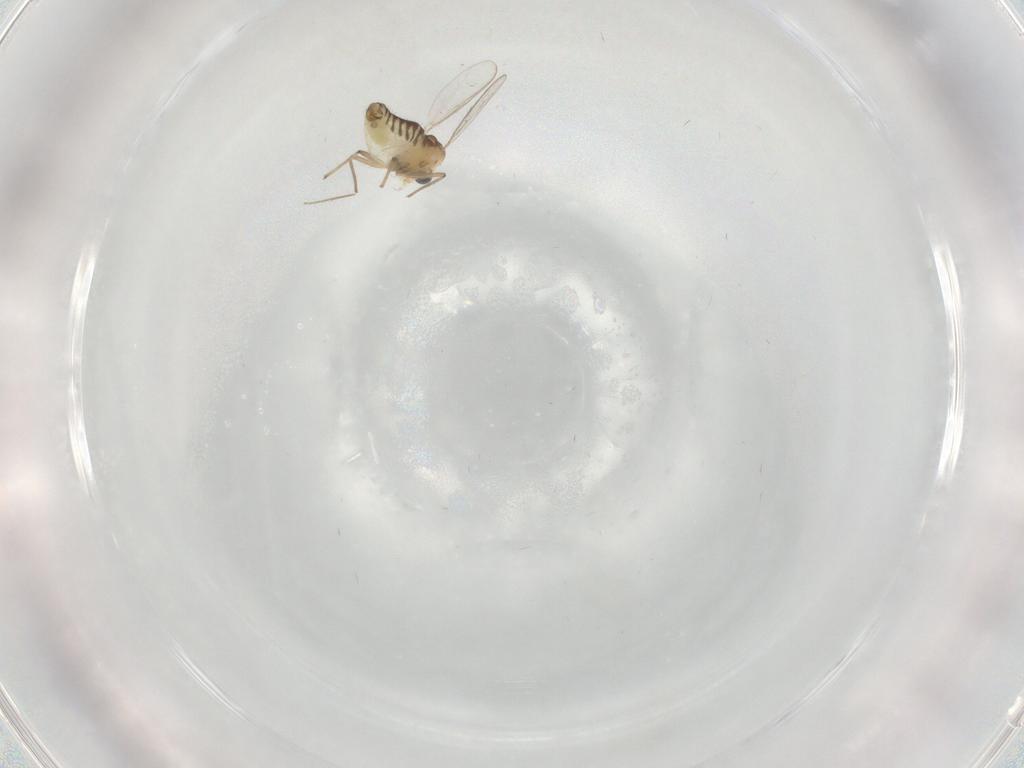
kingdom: Animalia
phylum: Arthropoda
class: Insecta
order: Diptera
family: Chironomidae
